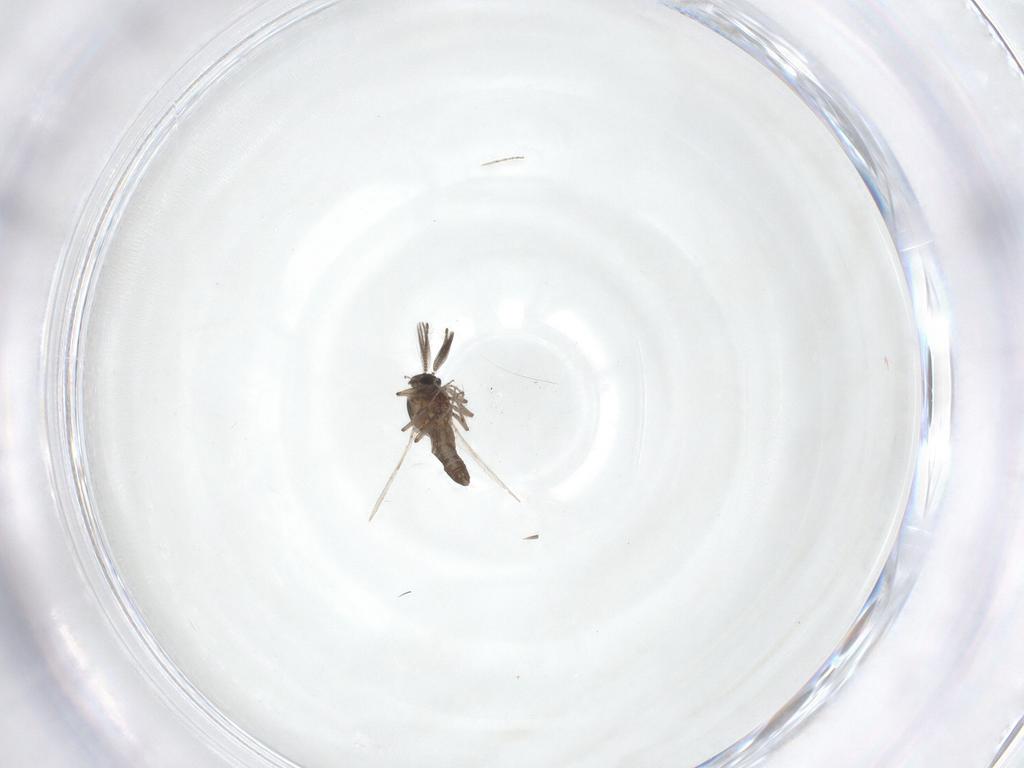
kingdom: Animalia
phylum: Arthropoda
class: Insecta
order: Diptera
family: Ceratopogonidae
